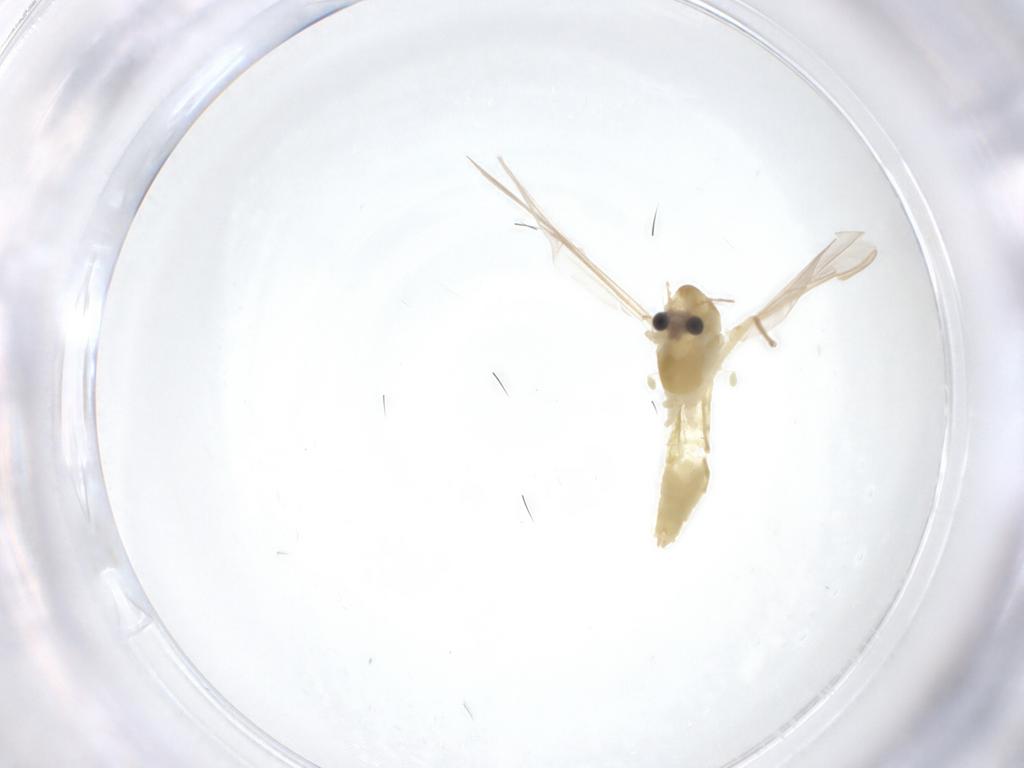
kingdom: Animalia
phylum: Arthropoda
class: Insecta
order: Diptera
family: Chironomidae
